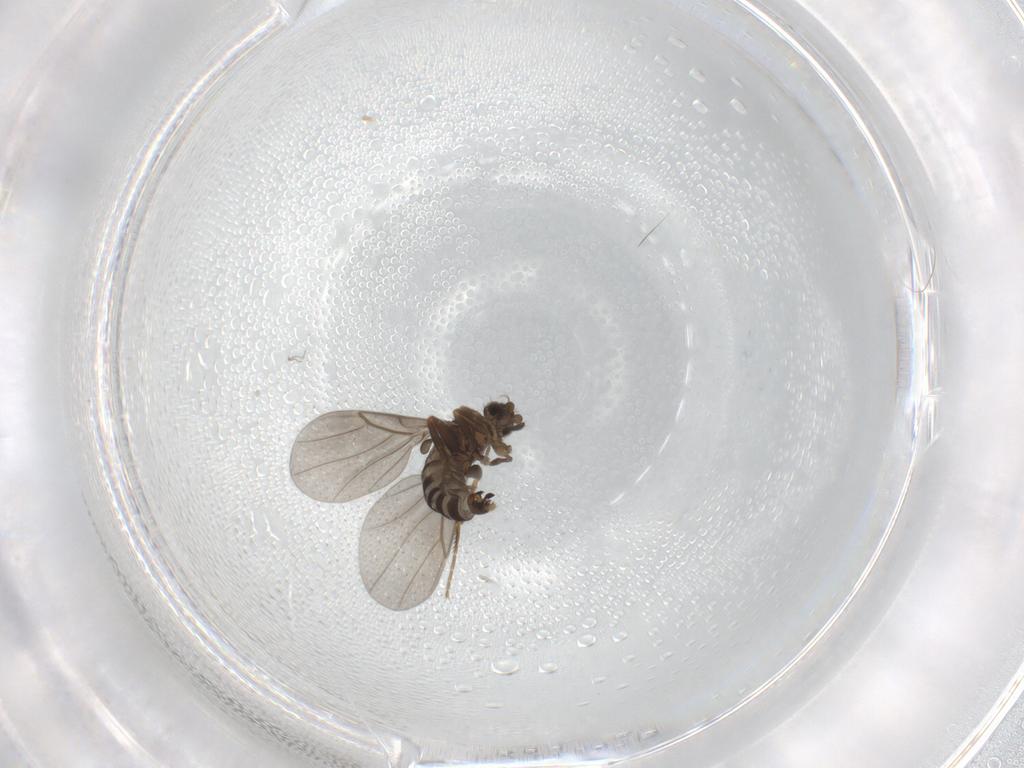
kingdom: Animalia
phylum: Arthropoda
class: Insecta
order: Diptera
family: Muscidae
